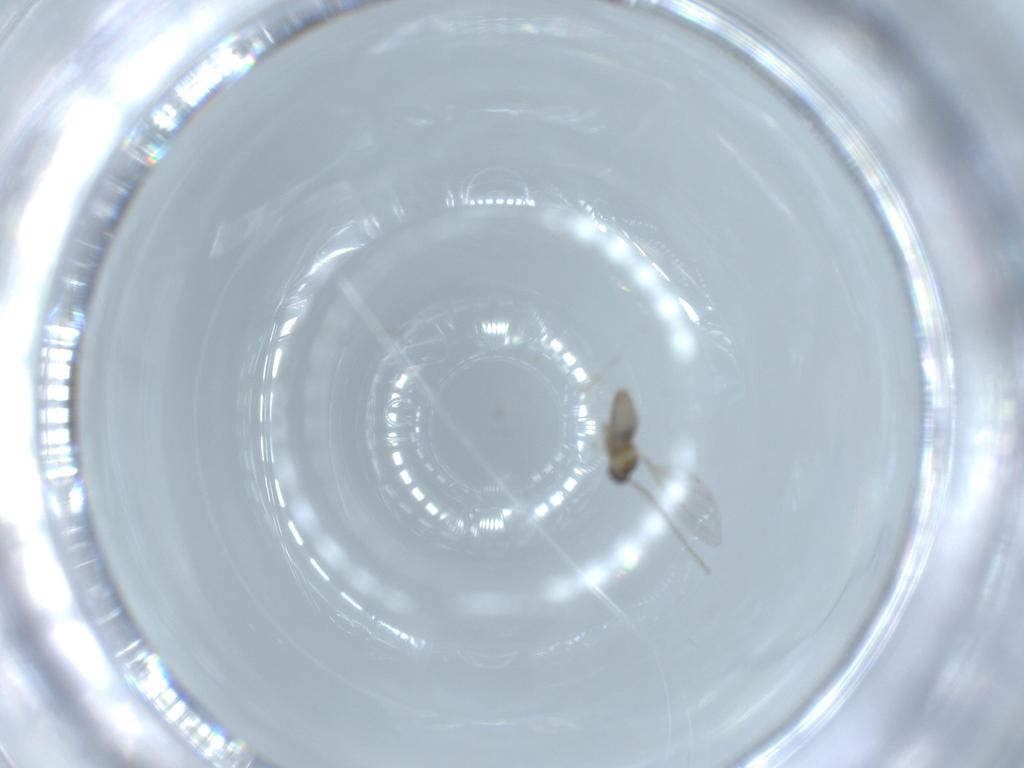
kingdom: Animalia
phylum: Arthropoda
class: Insecta
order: Diptera
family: Cecidomyiidae
